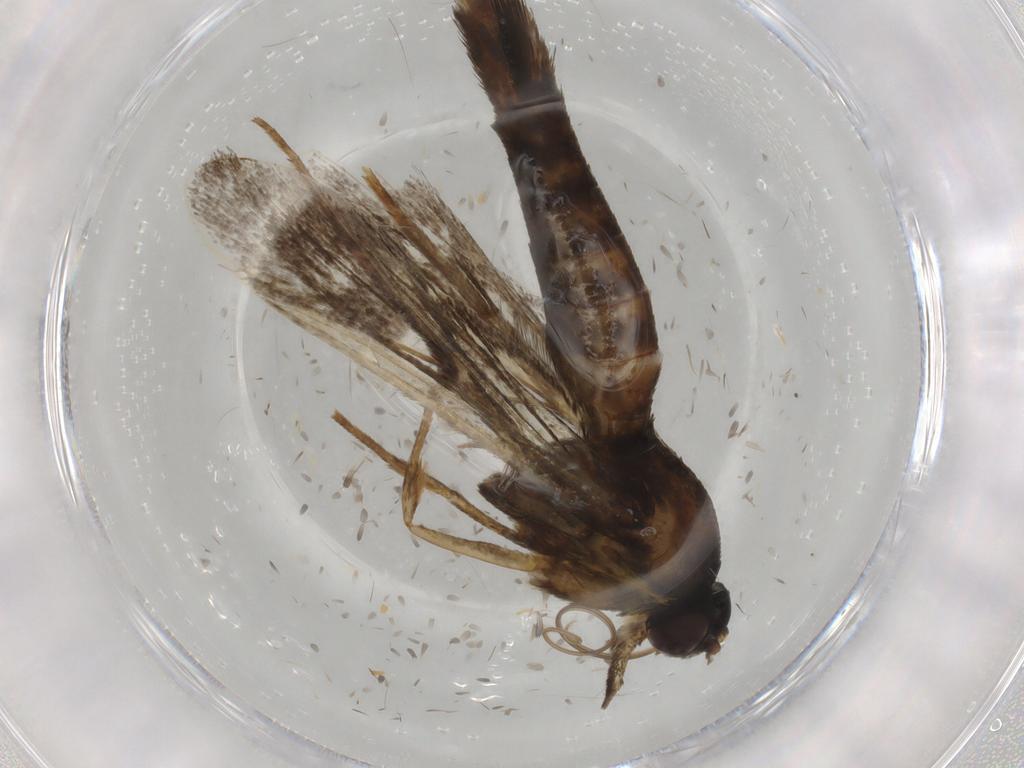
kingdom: Animalia
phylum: Arthropoda
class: Insecta
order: Lepidoptera
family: Sesiidae
